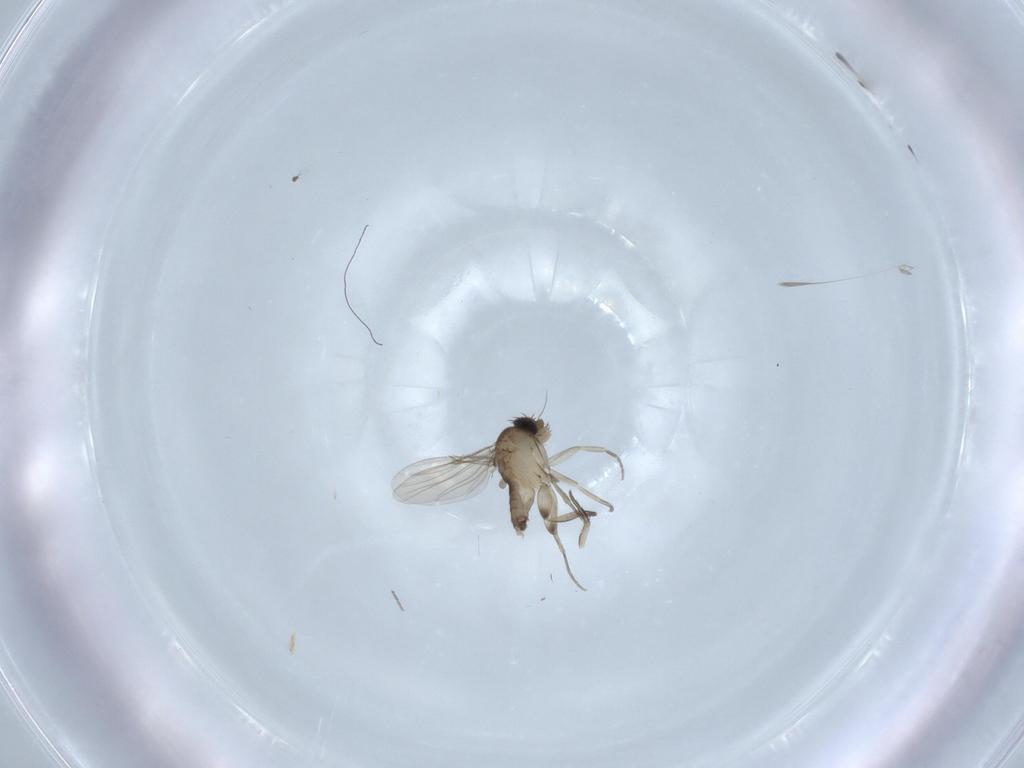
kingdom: Animalia
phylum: Arthropoda
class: Insecta
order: Diptera
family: Phoridae
